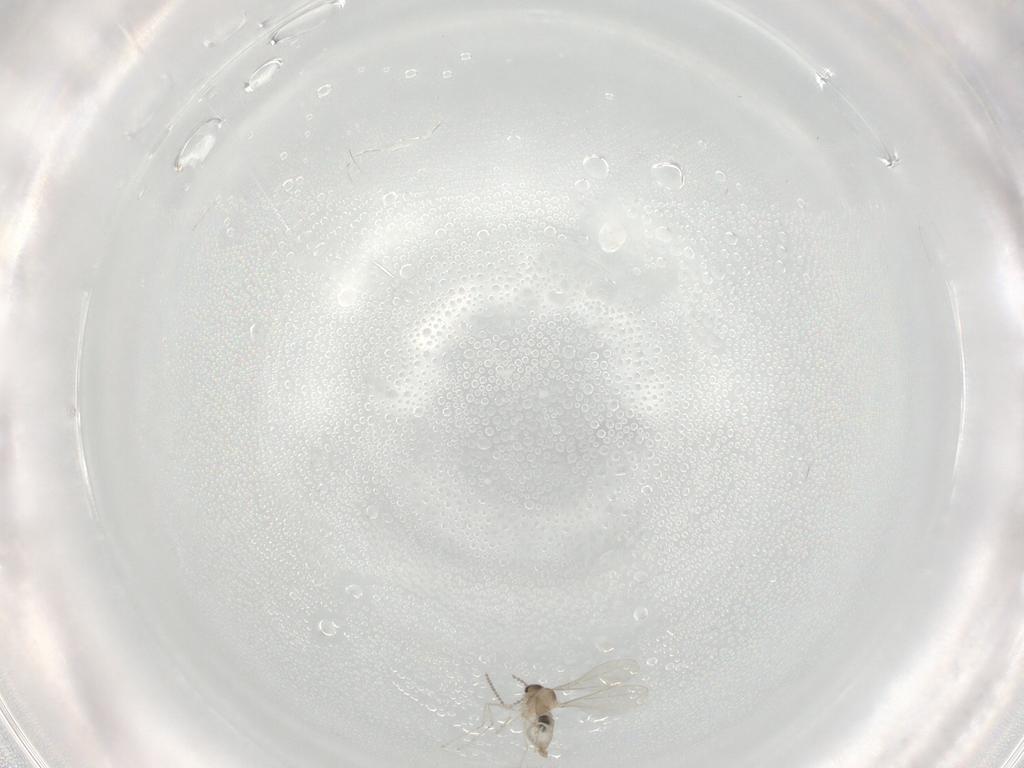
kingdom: Animalia
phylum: Arthropoda
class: Insecta
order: Diptera
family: Cecidomyiidae
